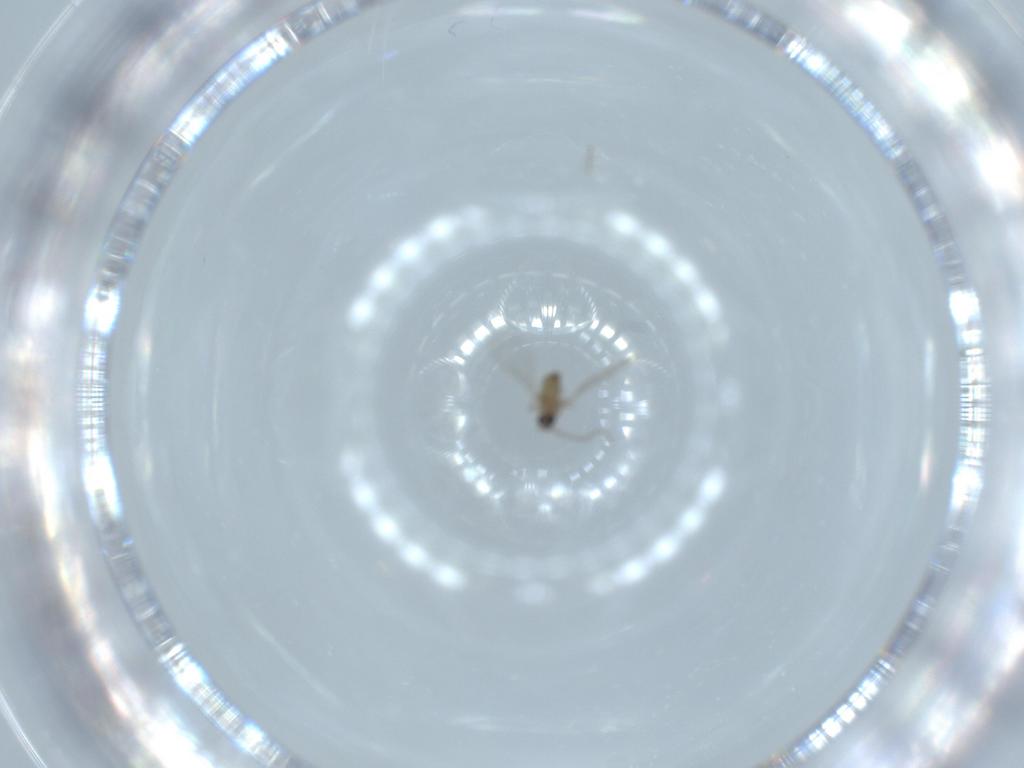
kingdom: Animalia
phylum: Arthropoda
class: Insecta
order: Diptera
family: Cecidomyiidae
